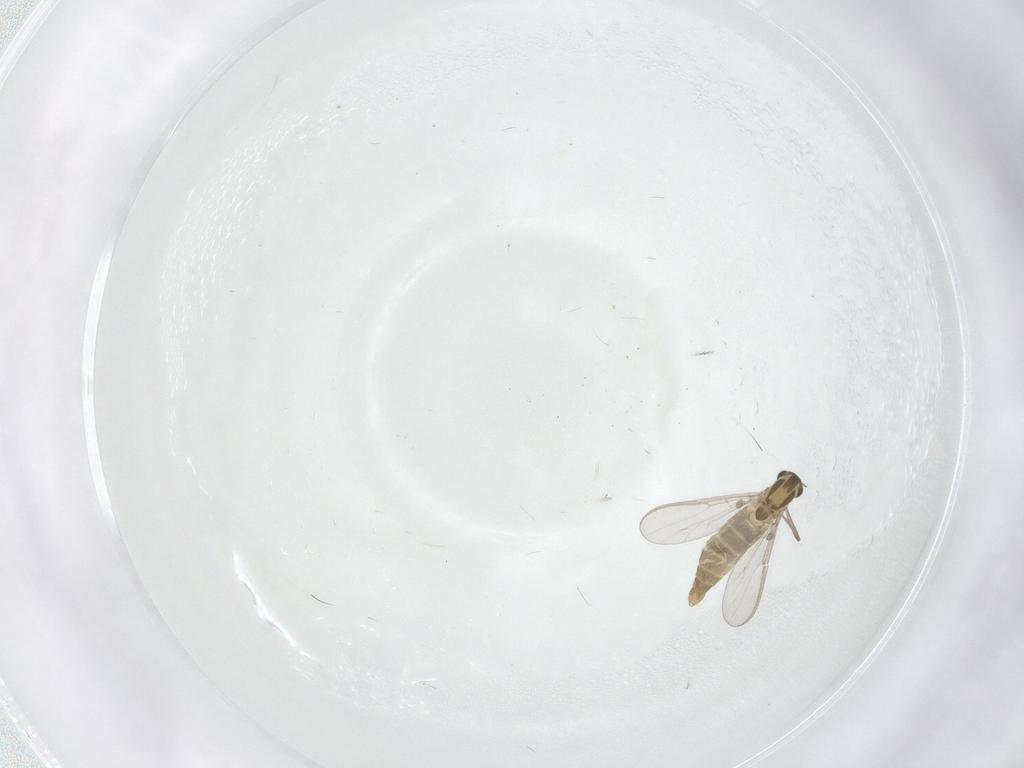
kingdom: Animalia
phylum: Arthropoda
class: Insecta
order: Diptera
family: Chironomidae
